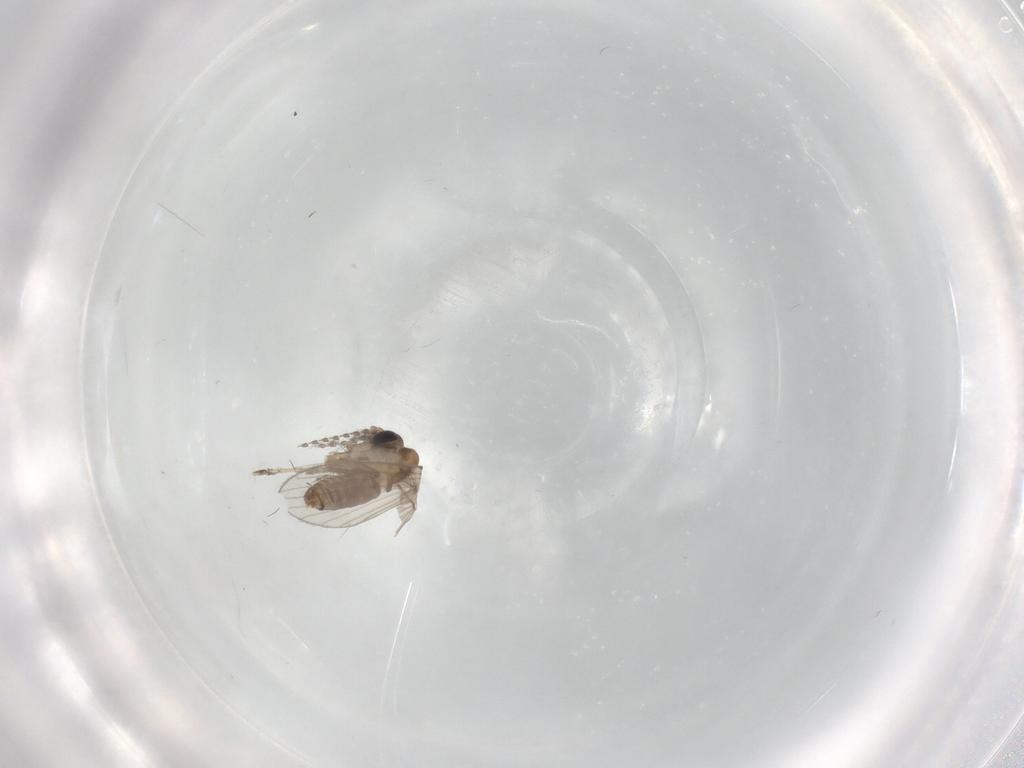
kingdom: Animalia
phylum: Arthropoda
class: Insecta
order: Diptera
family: Psychodidae
